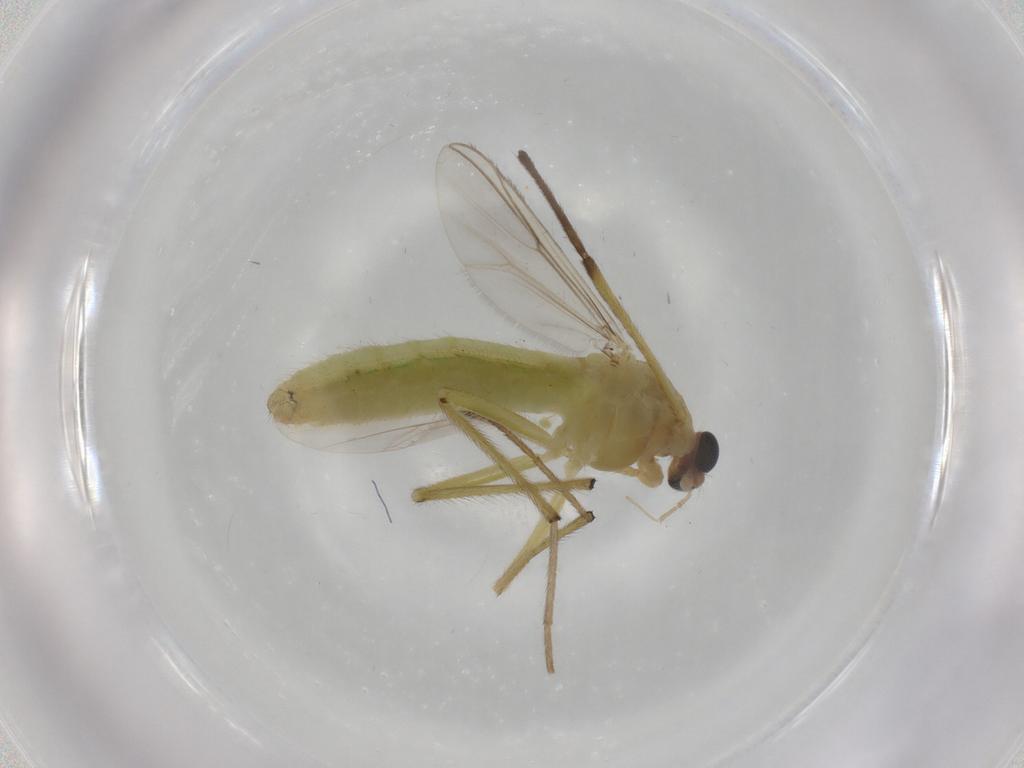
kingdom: Animalia
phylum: Arthropoda
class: Insecta
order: Diptera
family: Chironomidae
